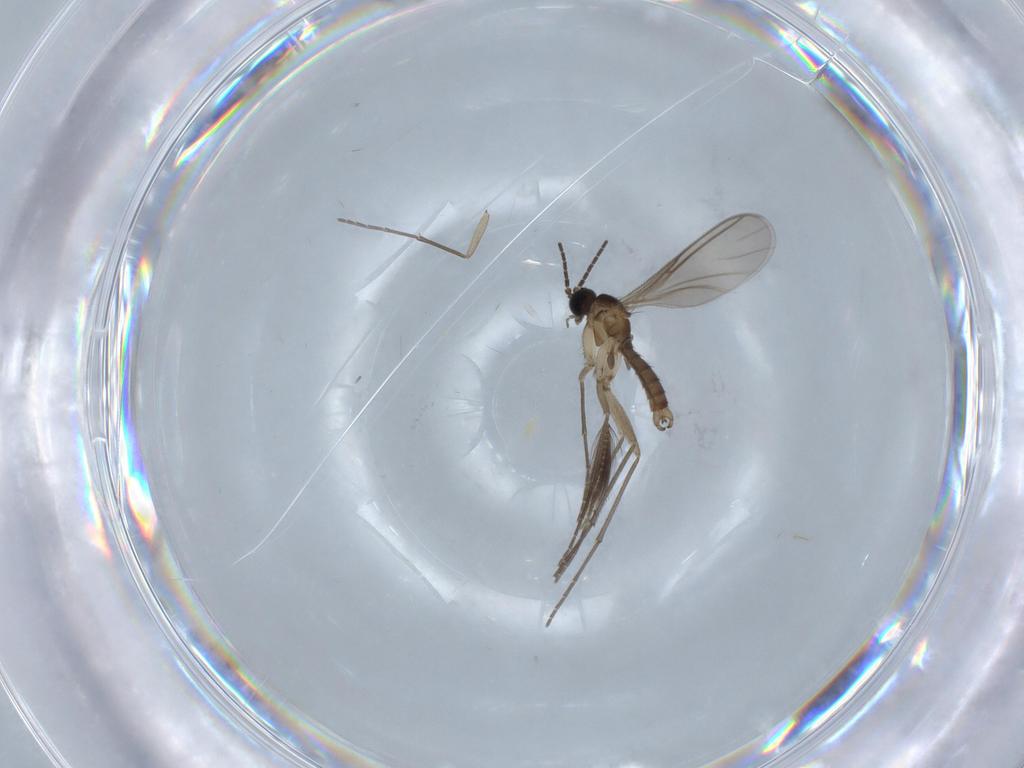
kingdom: Animalia
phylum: Arthropoda
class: Insecta
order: Diptera
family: Sciaridae
